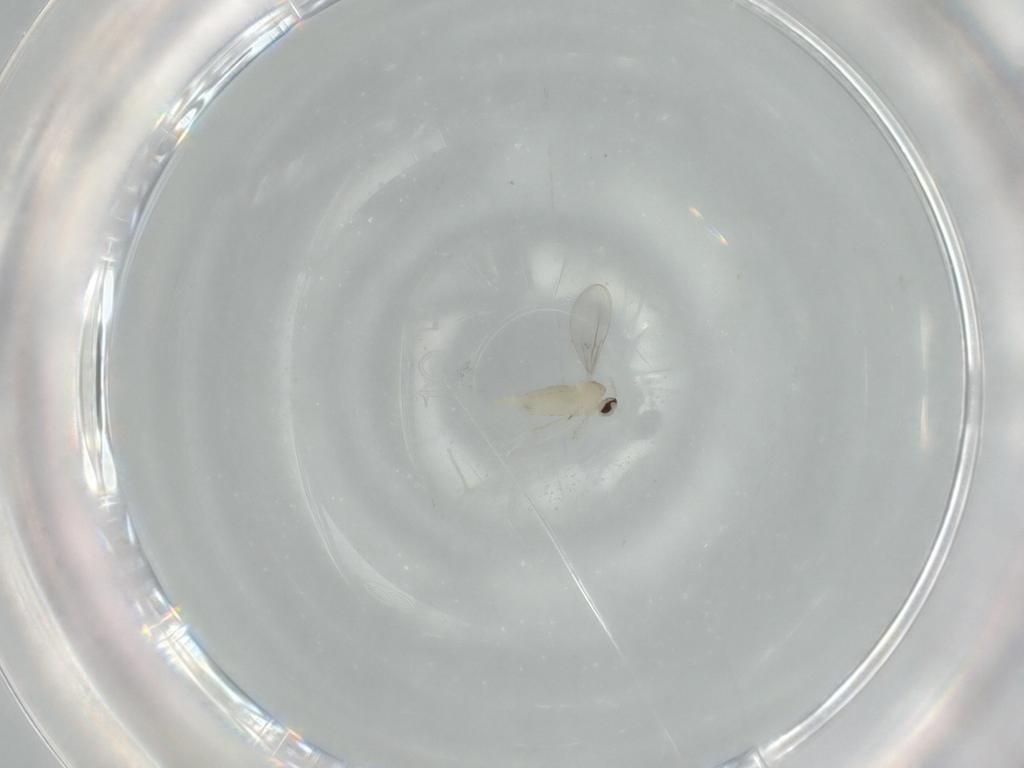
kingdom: Animalia
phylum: Arthropoda
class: Insecta
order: Diptera
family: Cecidomyiidae
